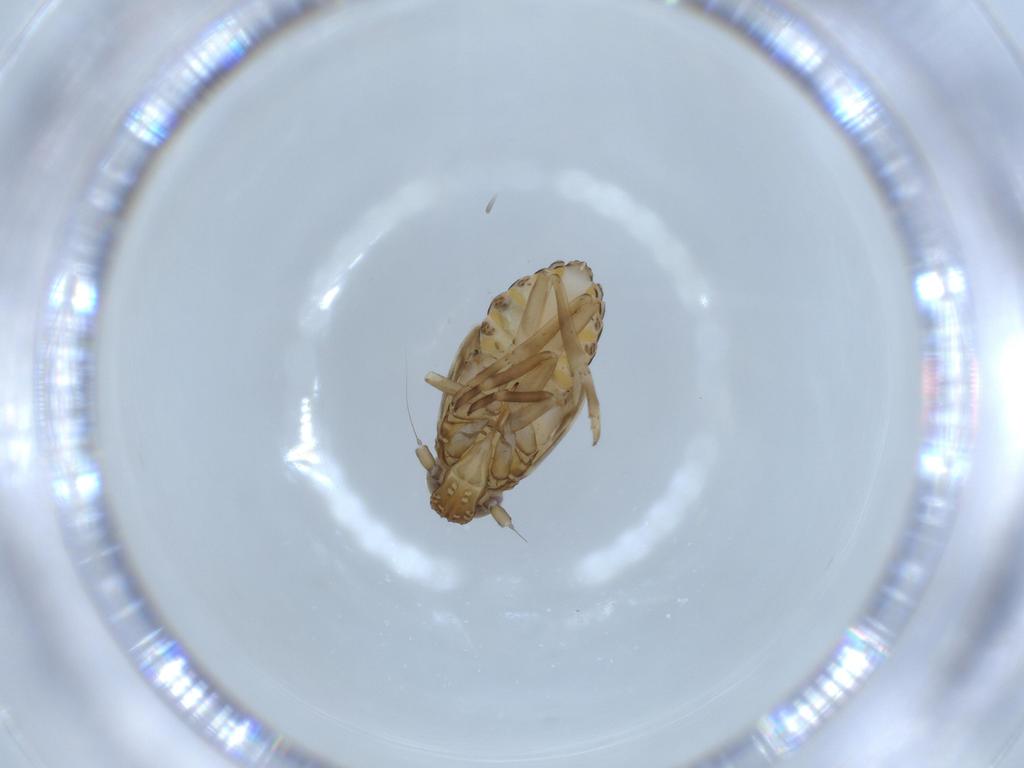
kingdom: Animalia
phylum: Arthropoda
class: Insecta
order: Hemiptera
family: Delphacidae
